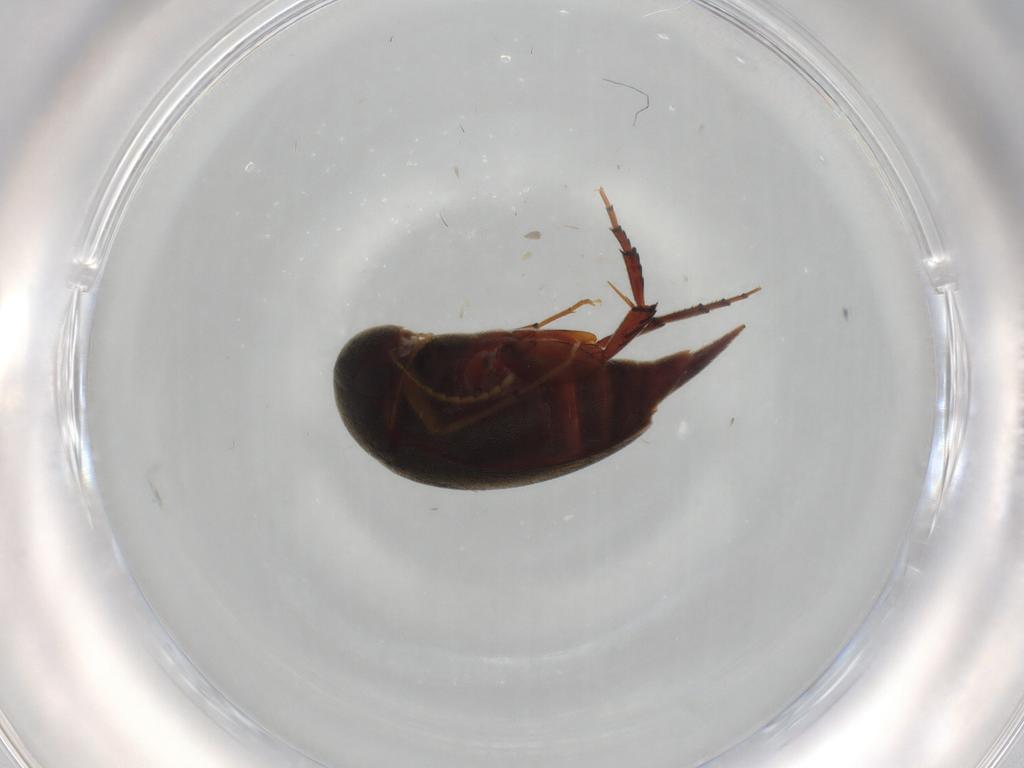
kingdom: Animalia
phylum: Arthropoda
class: Insecta
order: Coleoptera
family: Mordellidae
